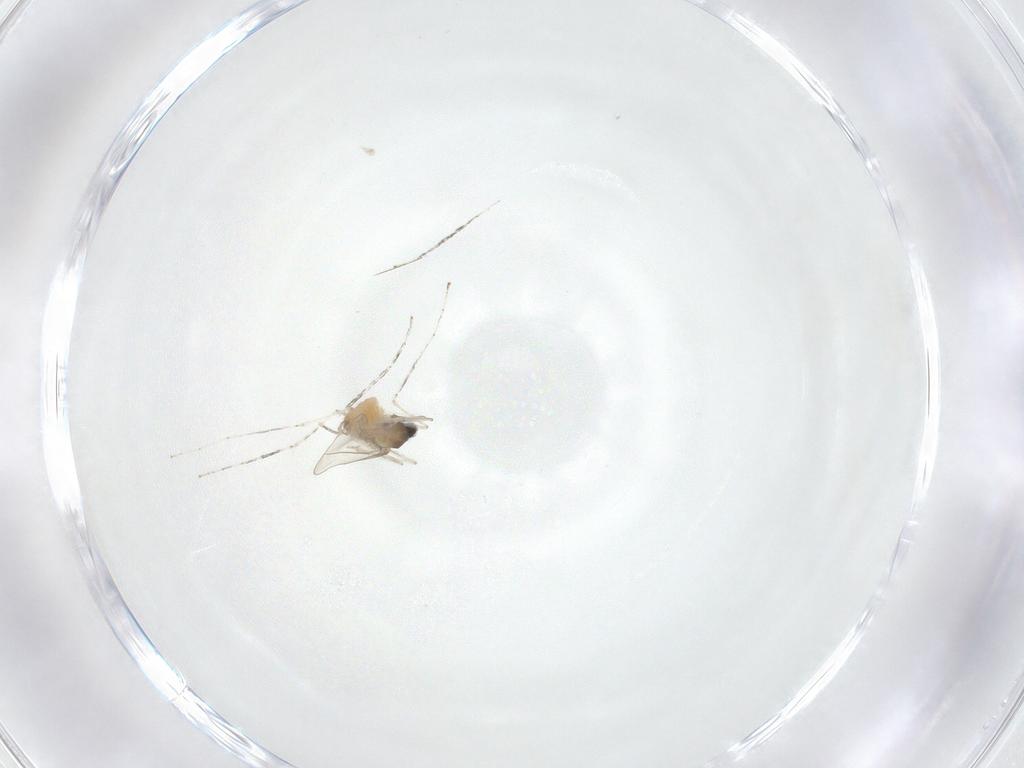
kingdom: Animalia
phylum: Arthropoda
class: Insecta
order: Diptera
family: Cecidomyiidae
